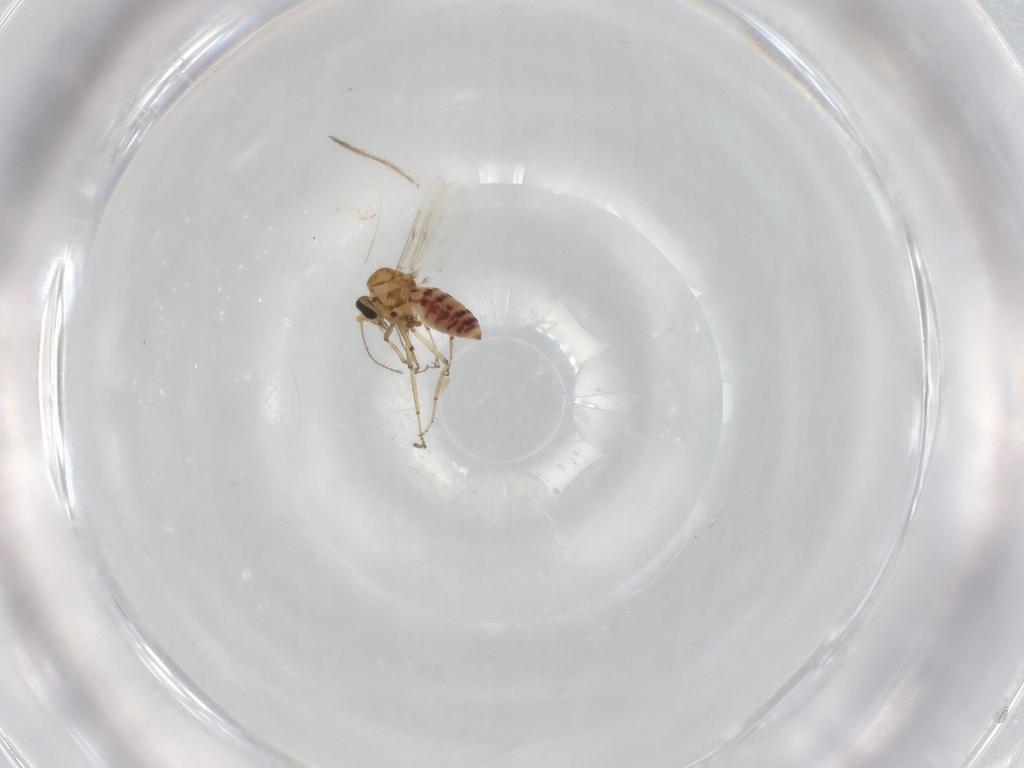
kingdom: Animalia
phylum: Arthropoda
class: Insecta
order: Diptera
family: Ceratopogonidae
